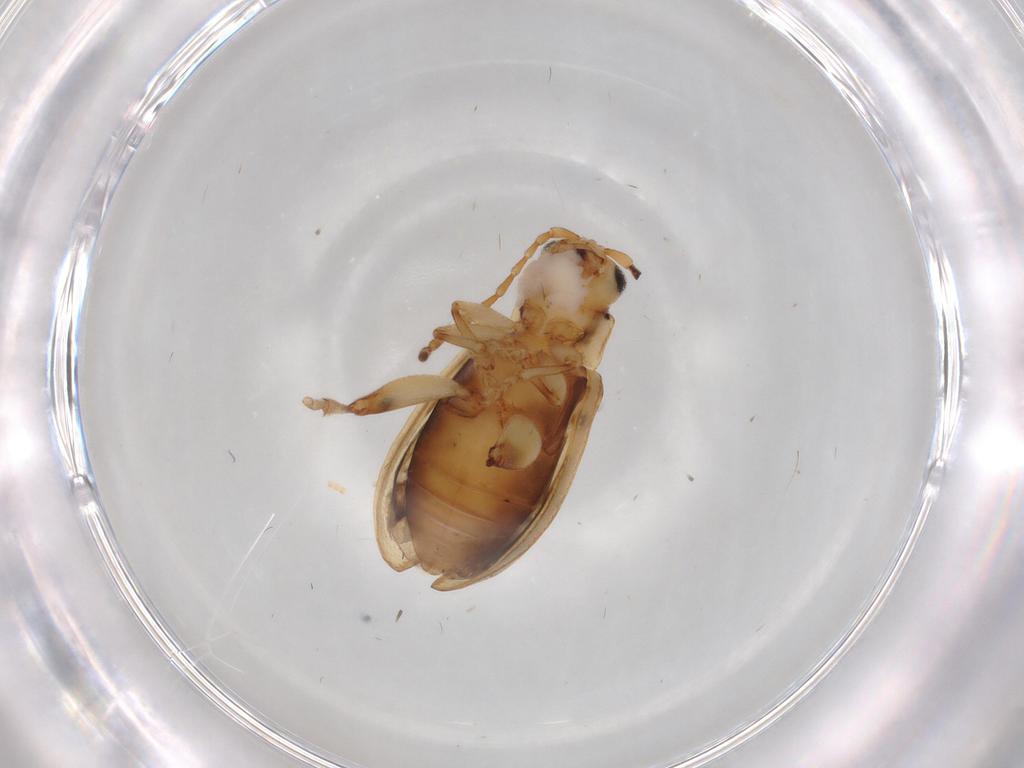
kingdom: Animalia
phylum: Arthropoda
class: Insecta
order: Coleoptera
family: Chrysomelidae
